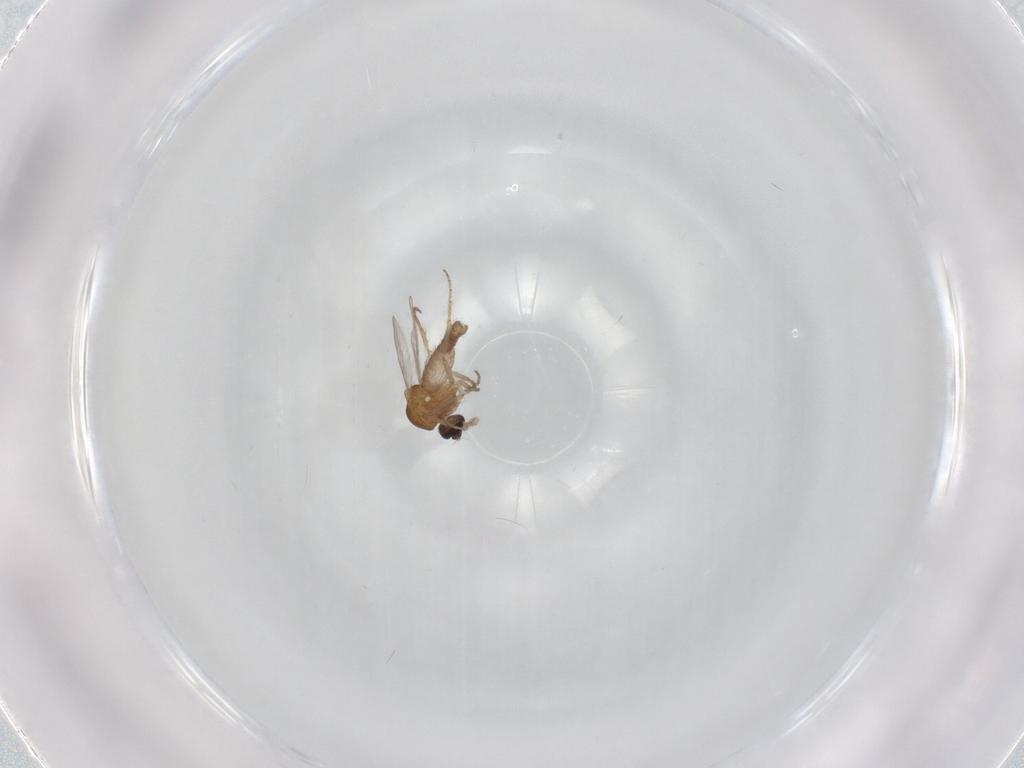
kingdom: Animalia
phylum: Arthropoda
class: Insecta
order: Diptera
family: Chironomidae
